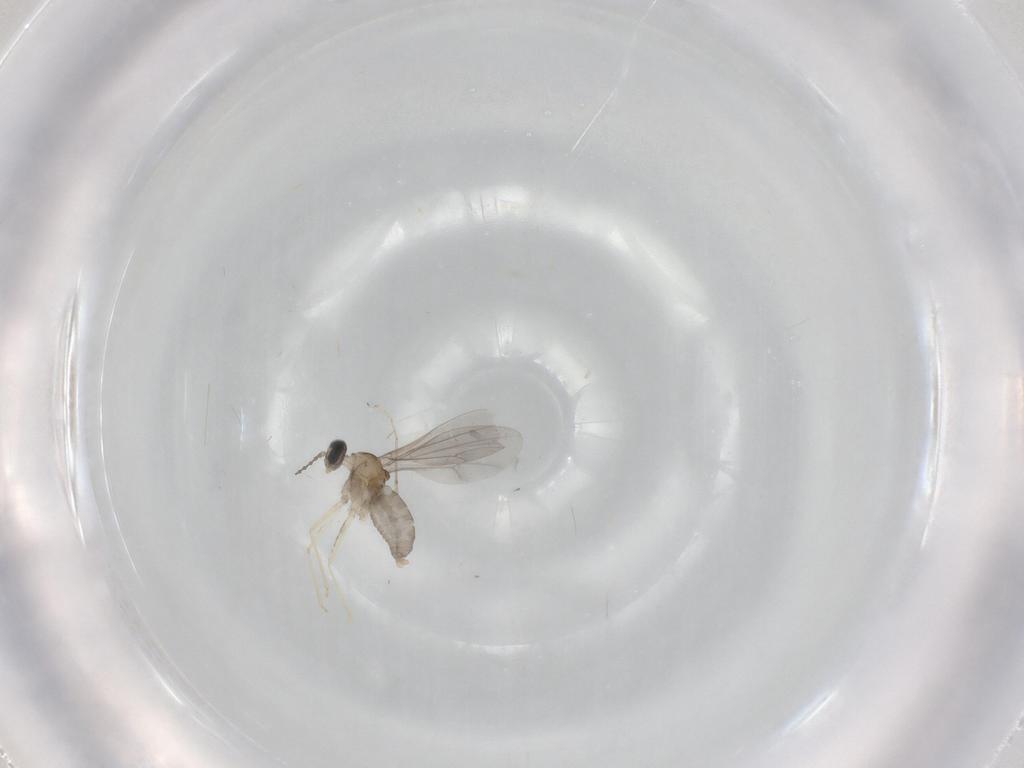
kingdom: Animalia
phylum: Arthropoda
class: Insecta
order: Diptera
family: Cecidomyiidae
